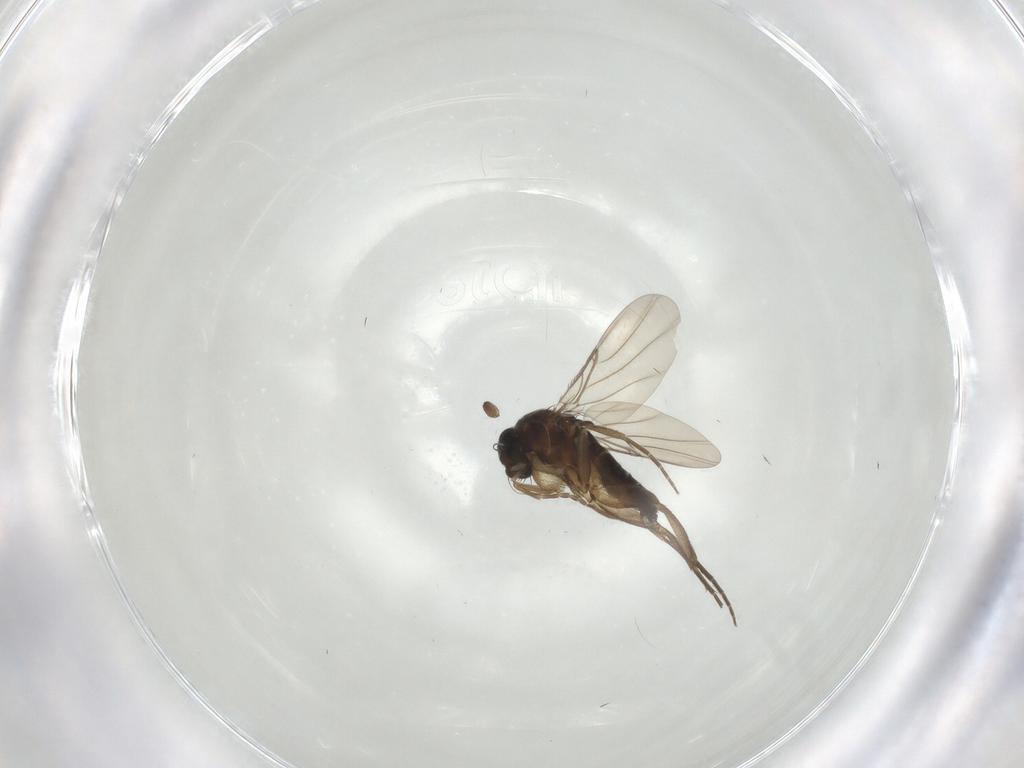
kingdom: Animalia
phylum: Arthropoda
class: Insecta
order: Diptera
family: Phoridae
